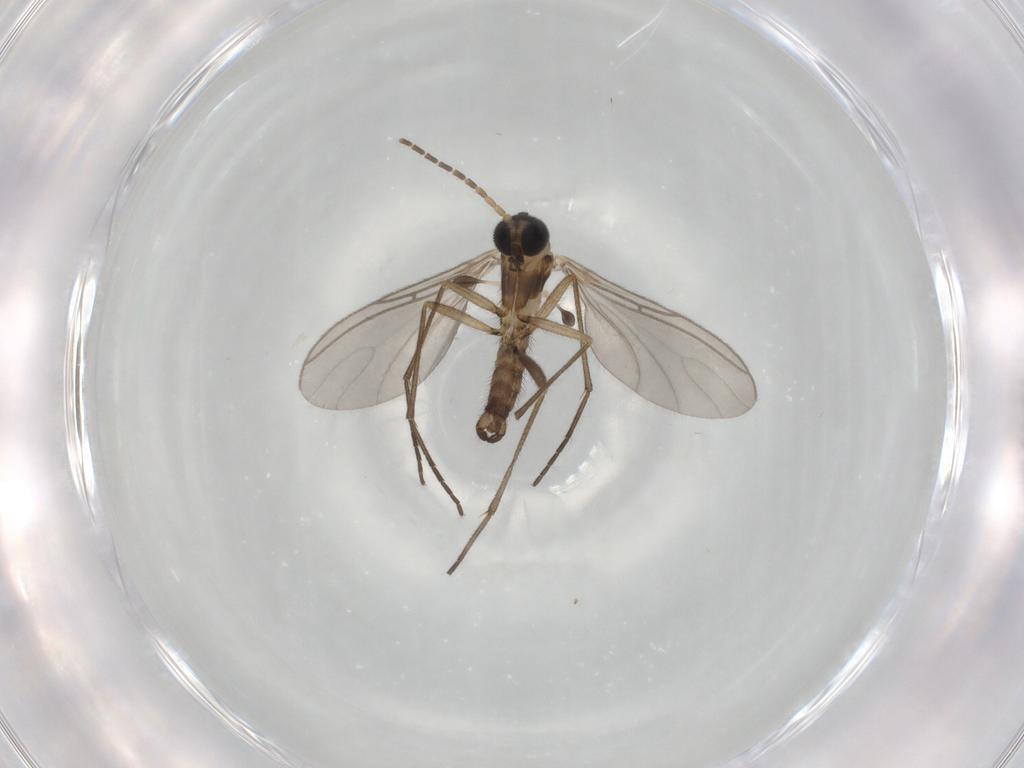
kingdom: Animalia
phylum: Arthropoda
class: Insecta
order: Diptera
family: Sciaridae
